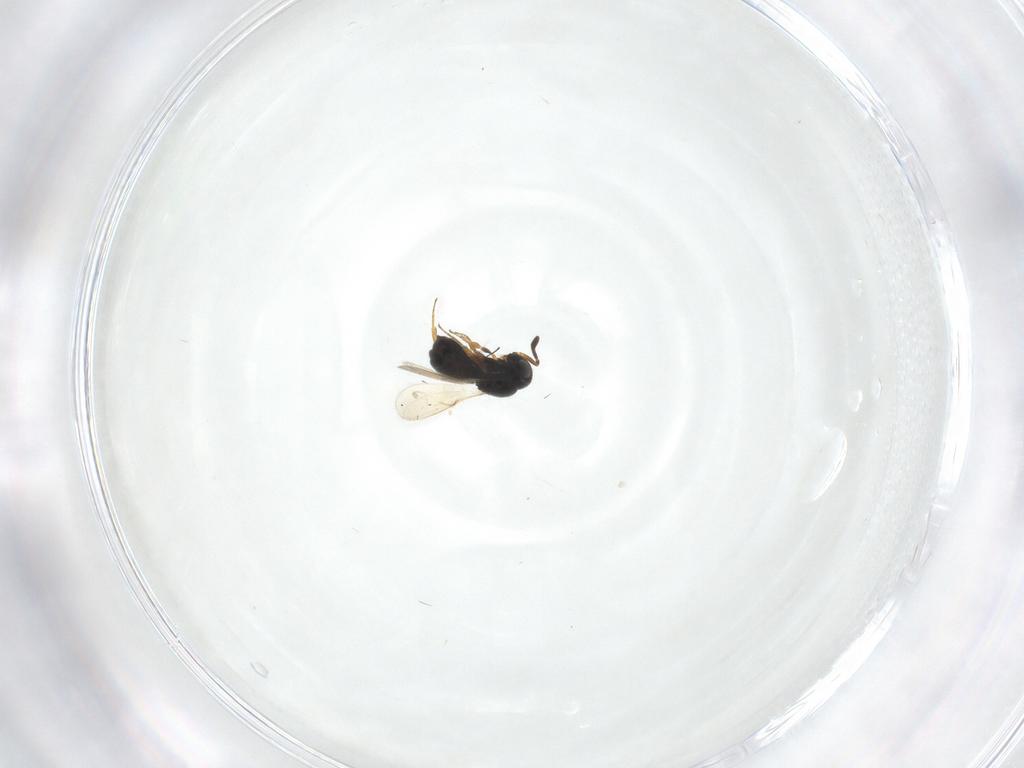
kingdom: Animalia
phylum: Arthropoda
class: Insecta
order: Hymenoptera
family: Scelionidae
